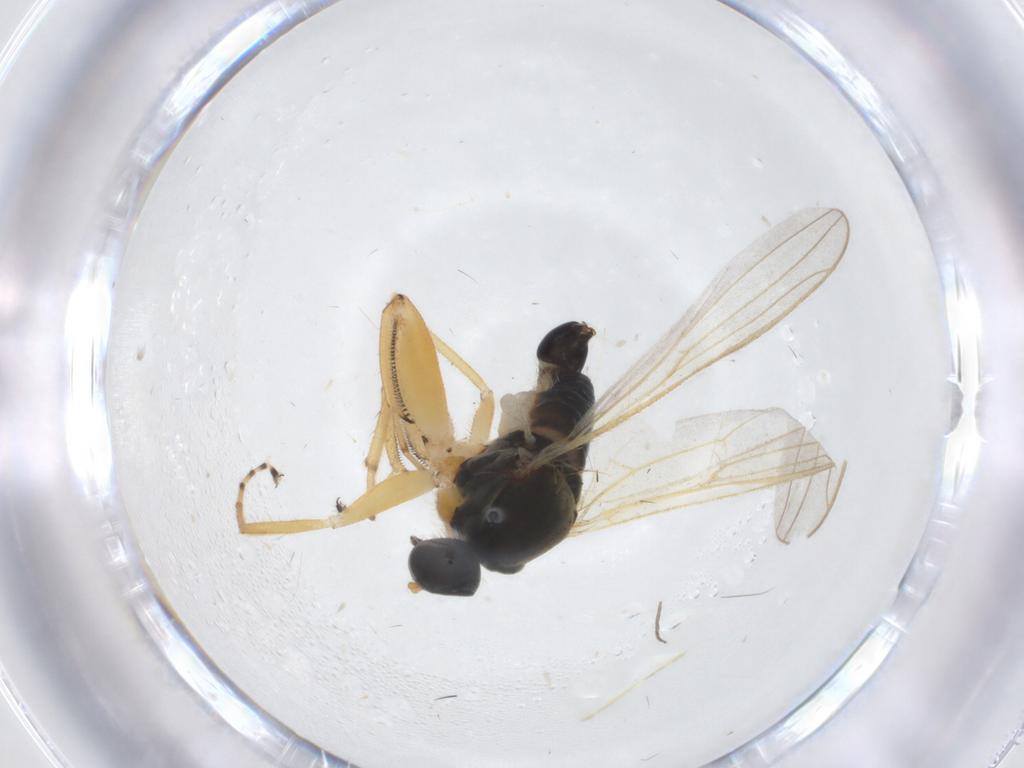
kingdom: Animalia
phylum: Arthropoda
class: Insecta
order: Diptera
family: Hybotidae
